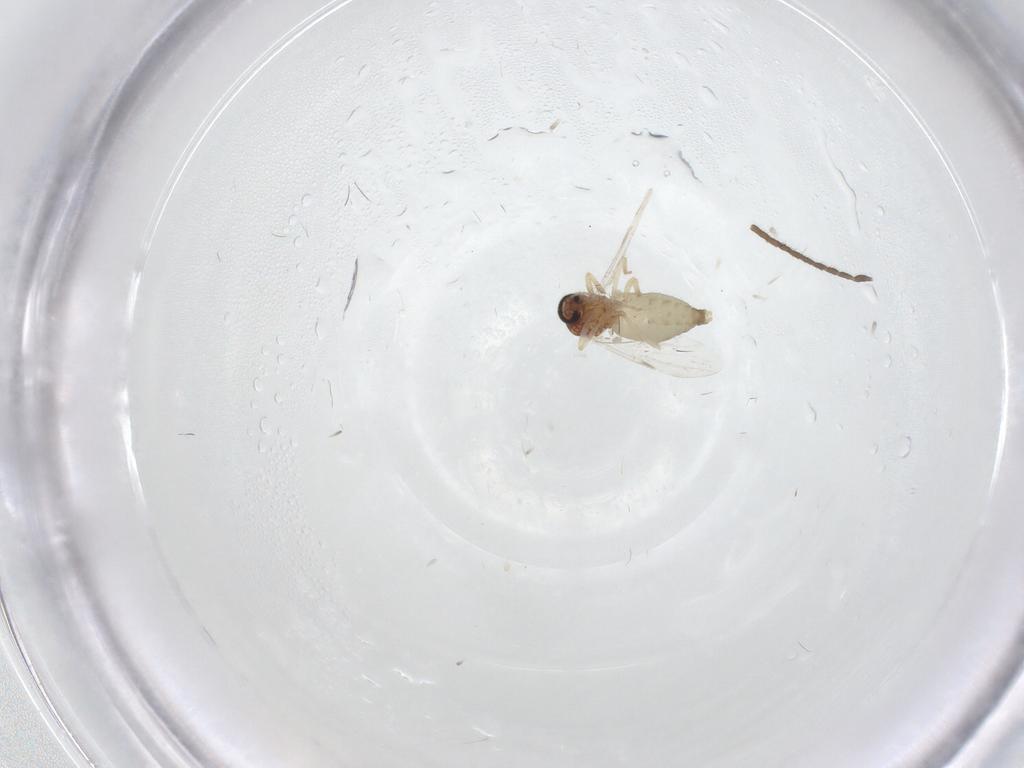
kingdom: Animalia
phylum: Arthropoda
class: Insecta
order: Diptera
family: Ceratopogonidae
